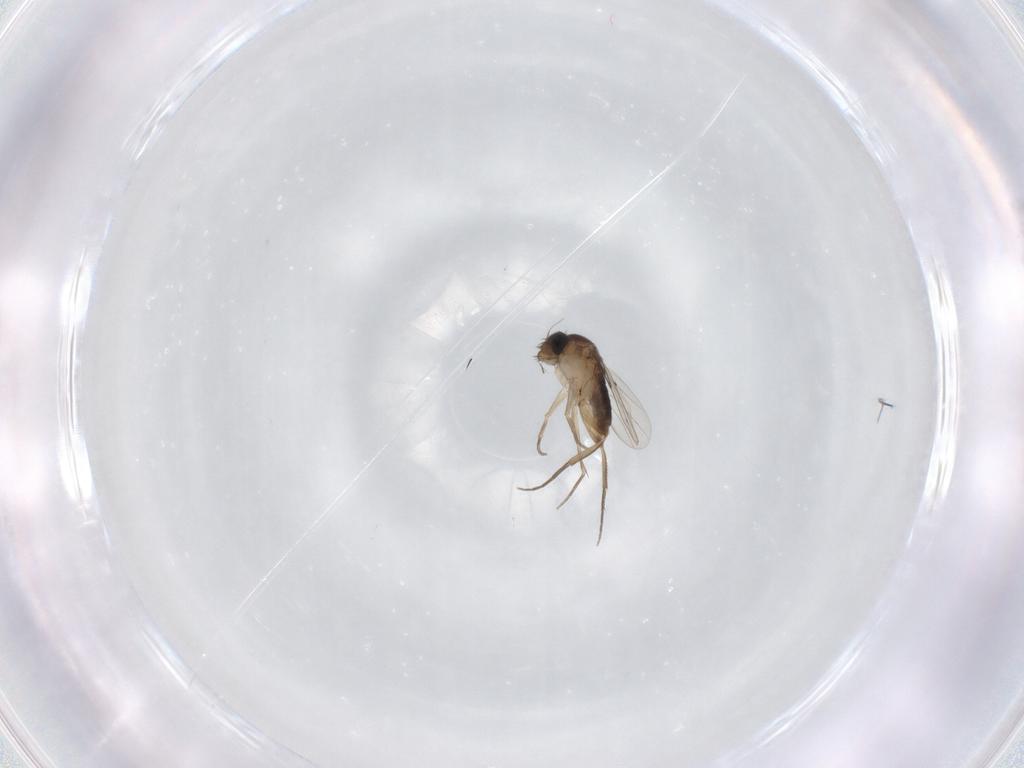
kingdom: Animalia
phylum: Arthropoda
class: Insecta
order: Diptera
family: Phoridae
